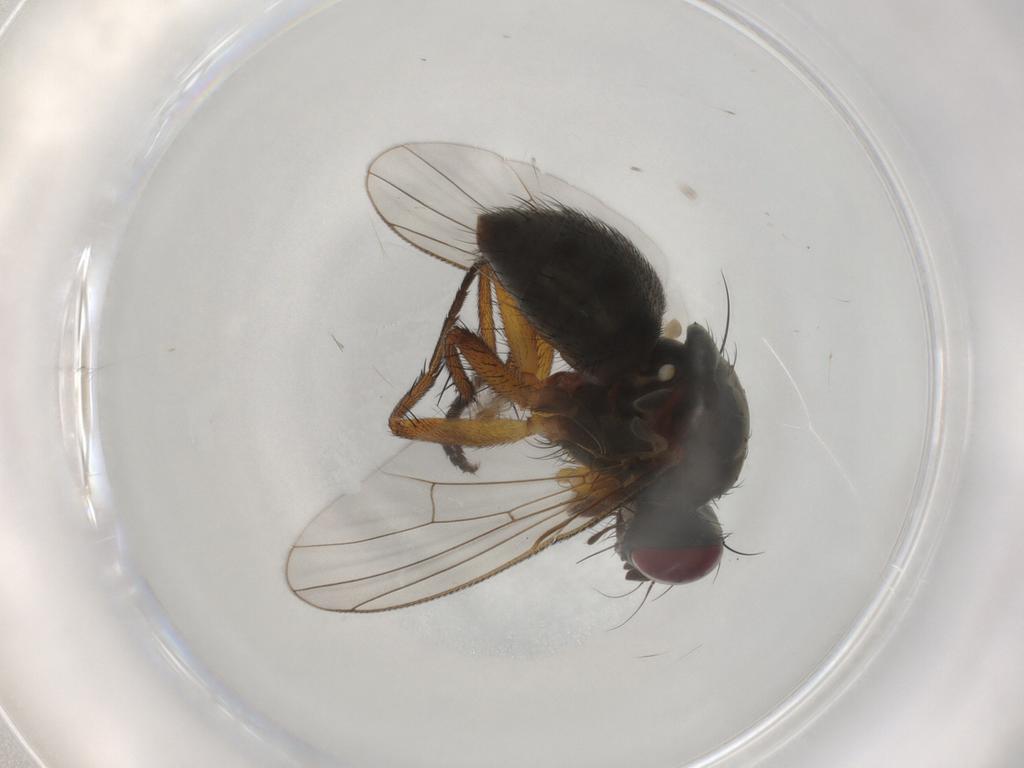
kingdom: Animalia
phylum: Arthropoda
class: Insecta
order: Diptera
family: Muscidae
